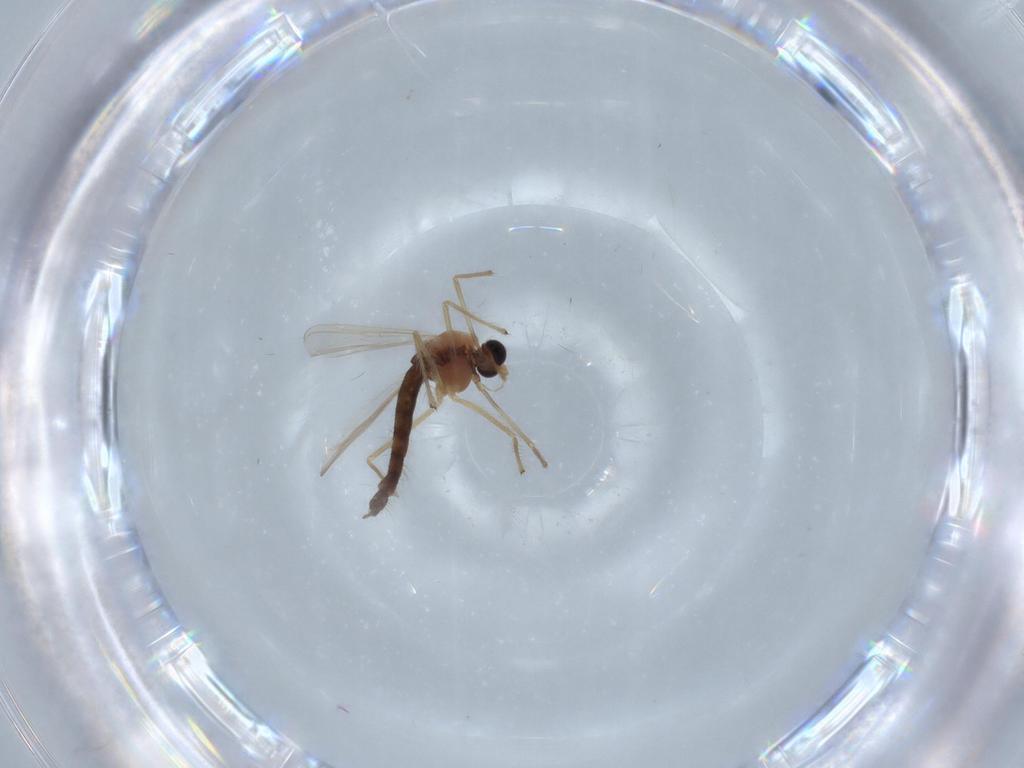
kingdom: Animalia
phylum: Arthropoda
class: Insecta
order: Diptera
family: Chironomidae
